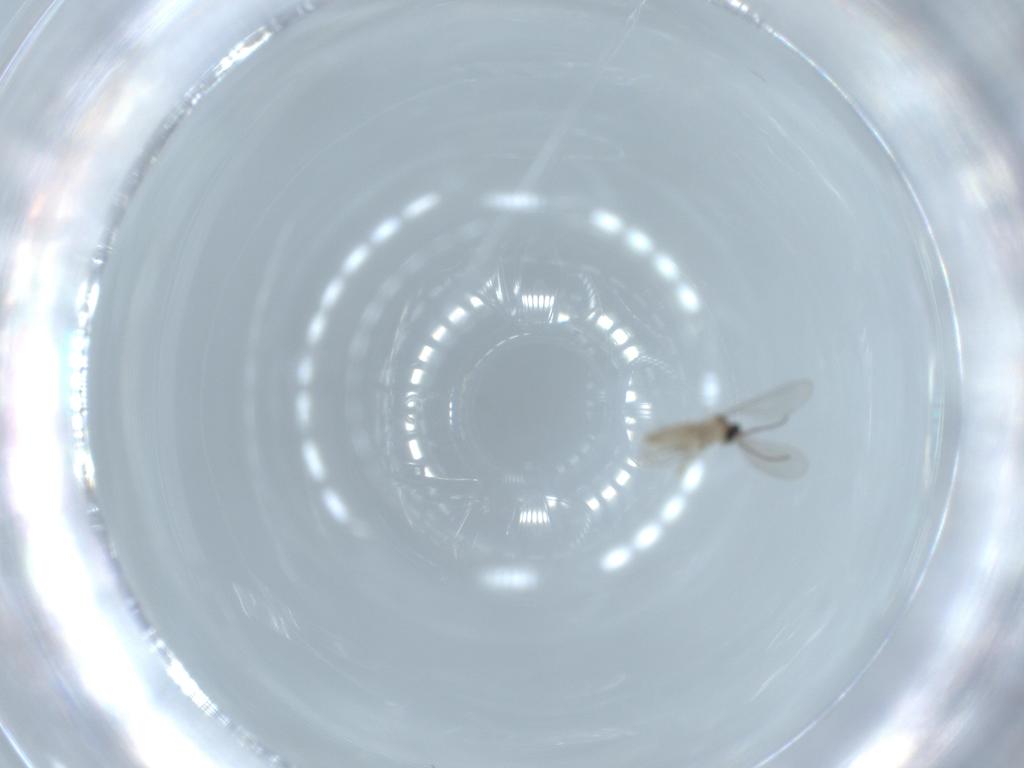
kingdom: Animalia
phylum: Arthropoda
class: Insecta
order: Diptera
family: Cecidomyiidae
